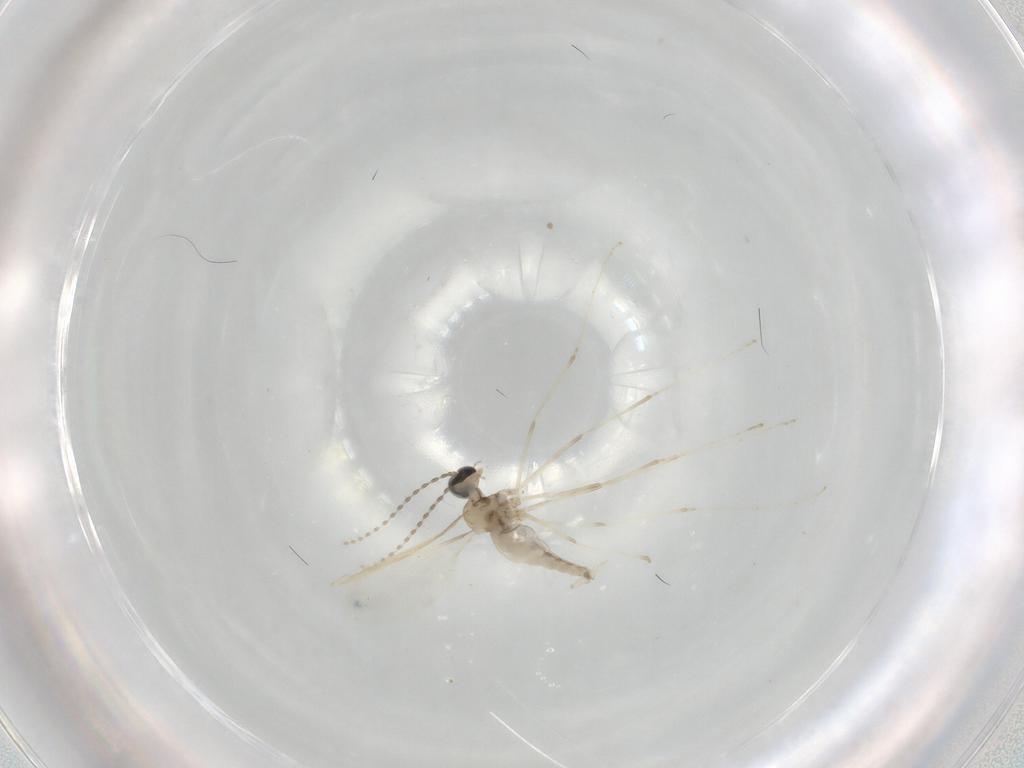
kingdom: Animalia
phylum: Arthropoda
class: Insecta
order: Diptera
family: Cecidomyiidae
